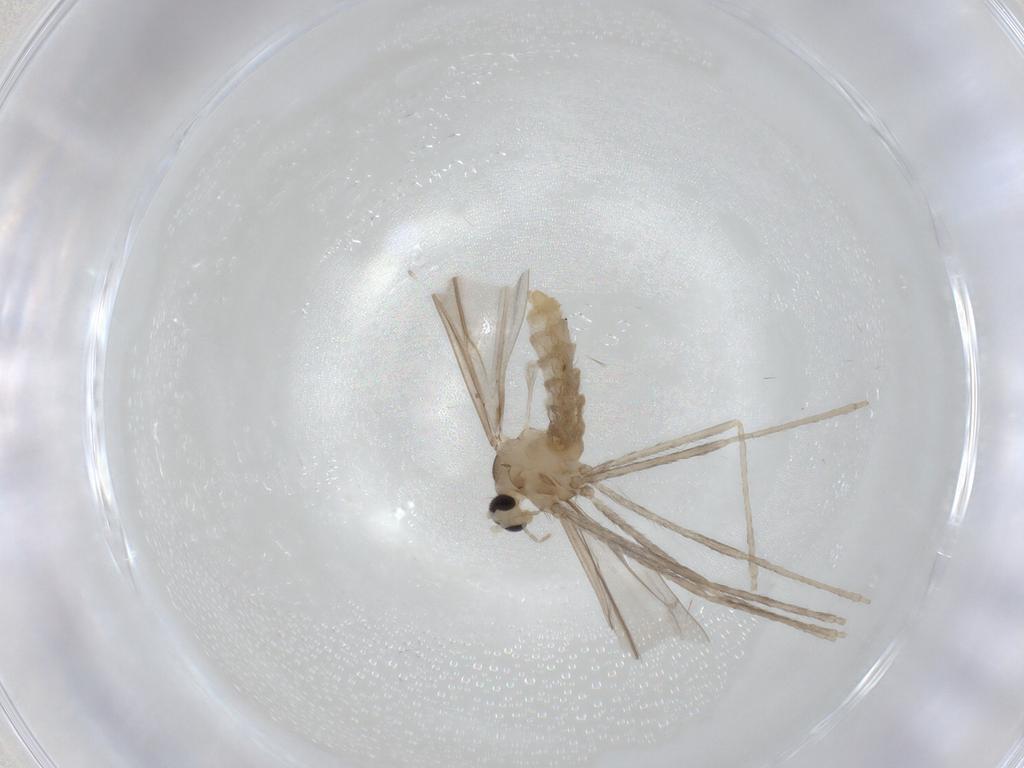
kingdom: Animalia
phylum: Arthropoda
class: Insecta
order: Diptera
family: Cecidomyiidae
